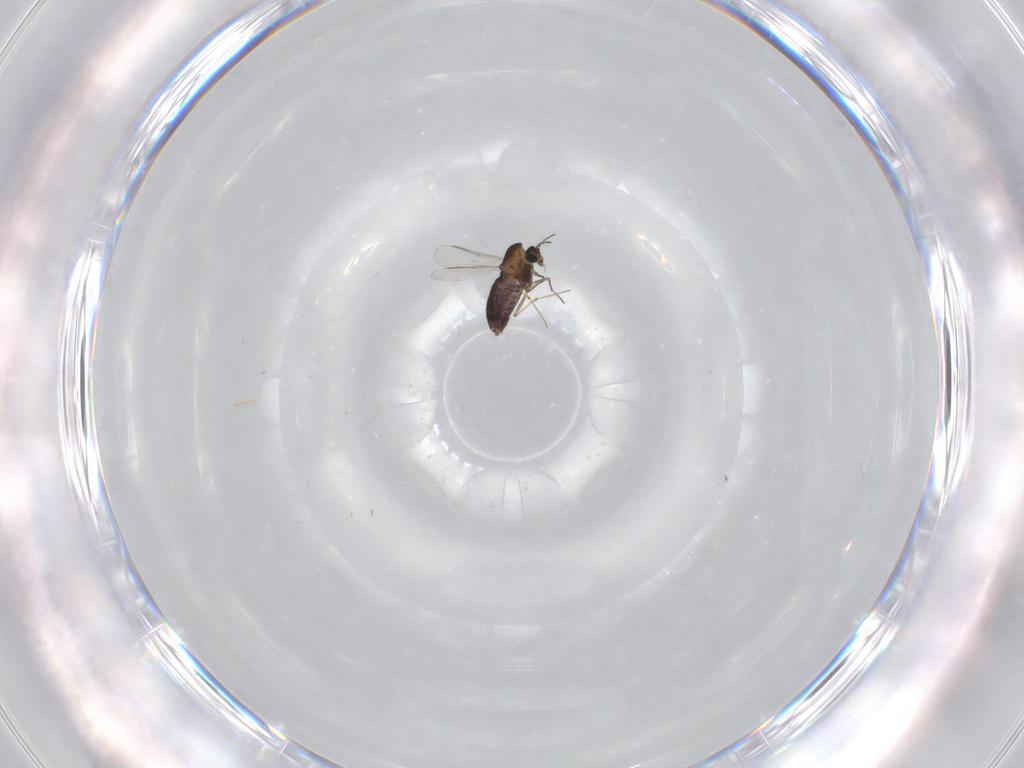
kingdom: Animalia
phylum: Arthropoda
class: Insecta
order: Diptera
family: Chironomidae
